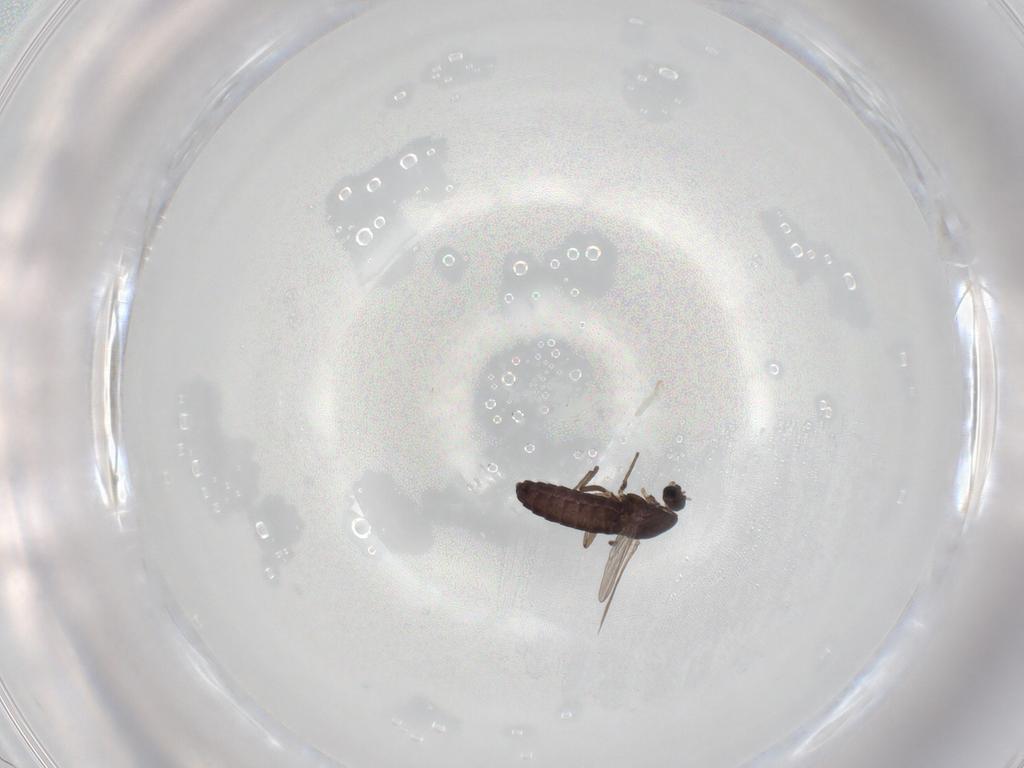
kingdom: Animalia
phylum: Arthropoda
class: Insecta
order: Diptera
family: Chironomidae
